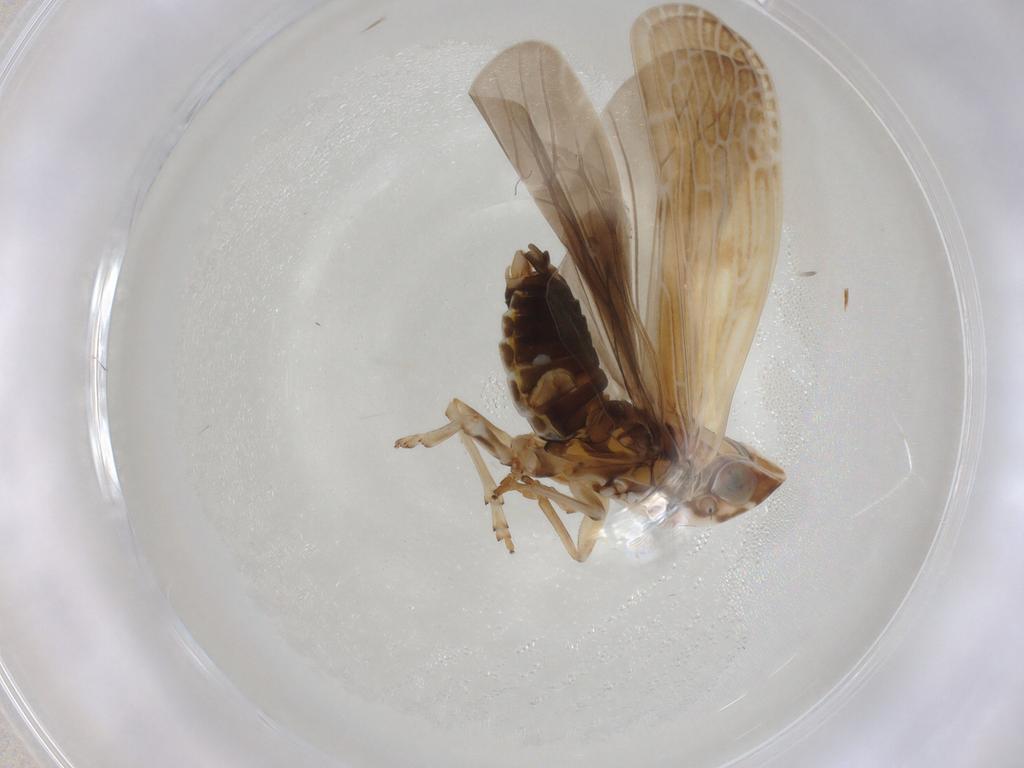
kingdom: Animalia
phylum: Arthropoda
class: Insecta
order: Hemiptera
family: Achilidae
